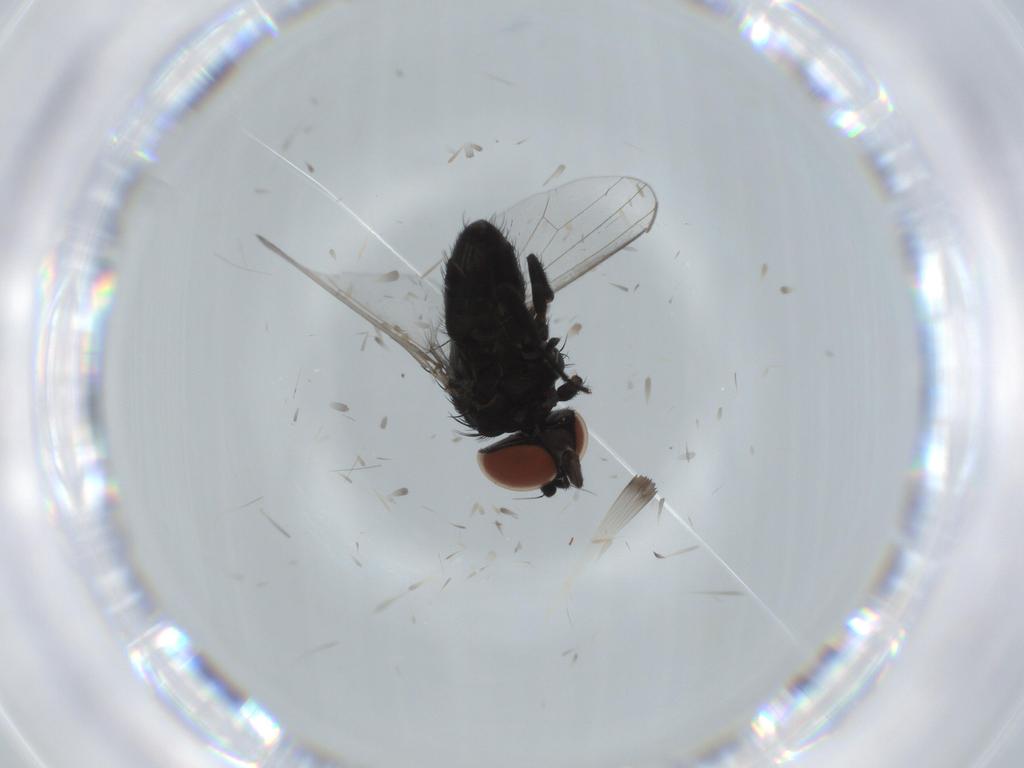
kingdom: Animalia
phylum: Arthropoda
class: Insecta
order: Diptera
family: Milichiidae
